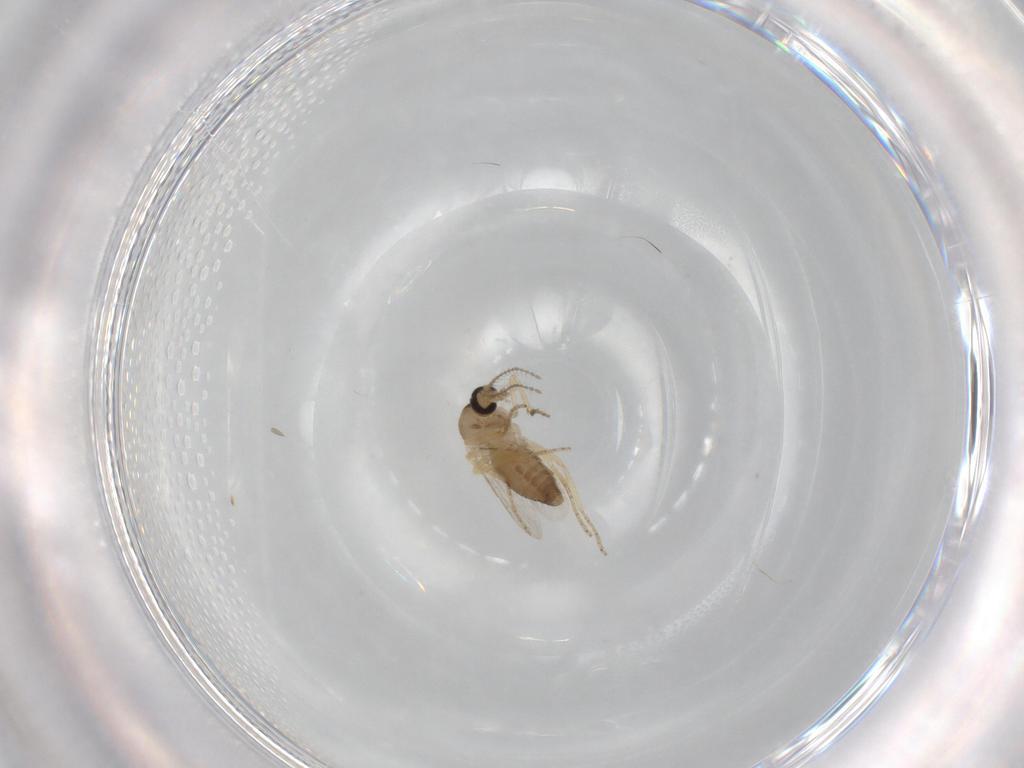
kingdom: Animalia
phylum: Arthropoda
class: Insecta
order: Diptera
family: Ceratopogonidae
